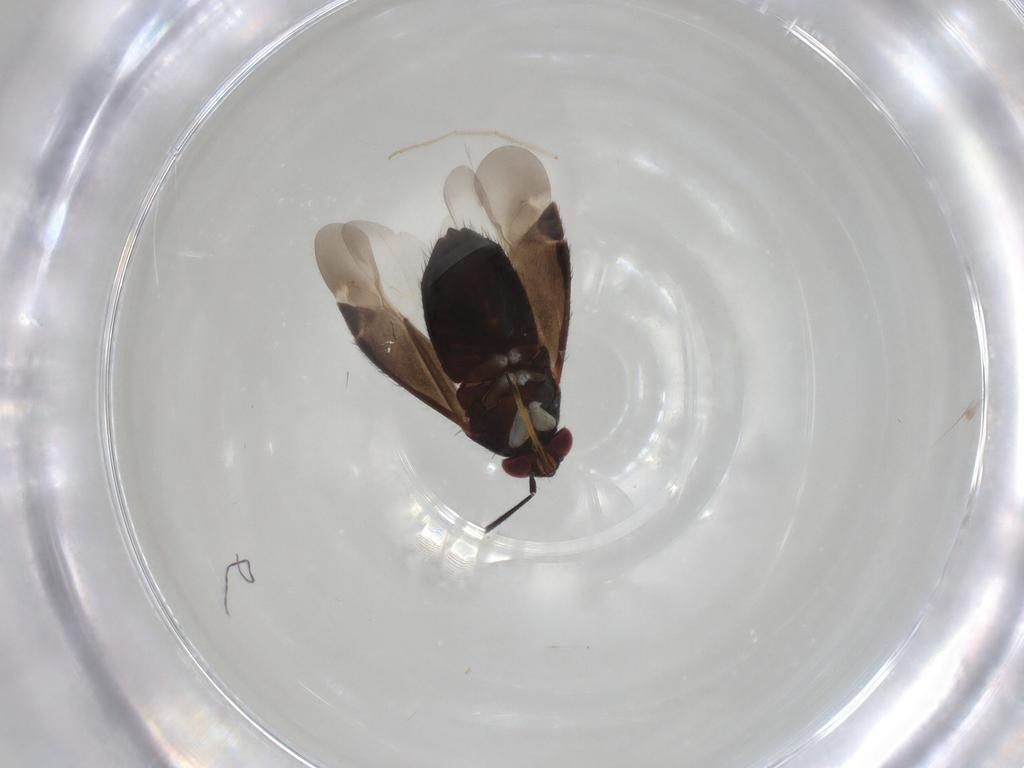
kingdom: Animalia
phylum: Arthropoda
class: Insecta
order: Hemiptera
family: Miridae
